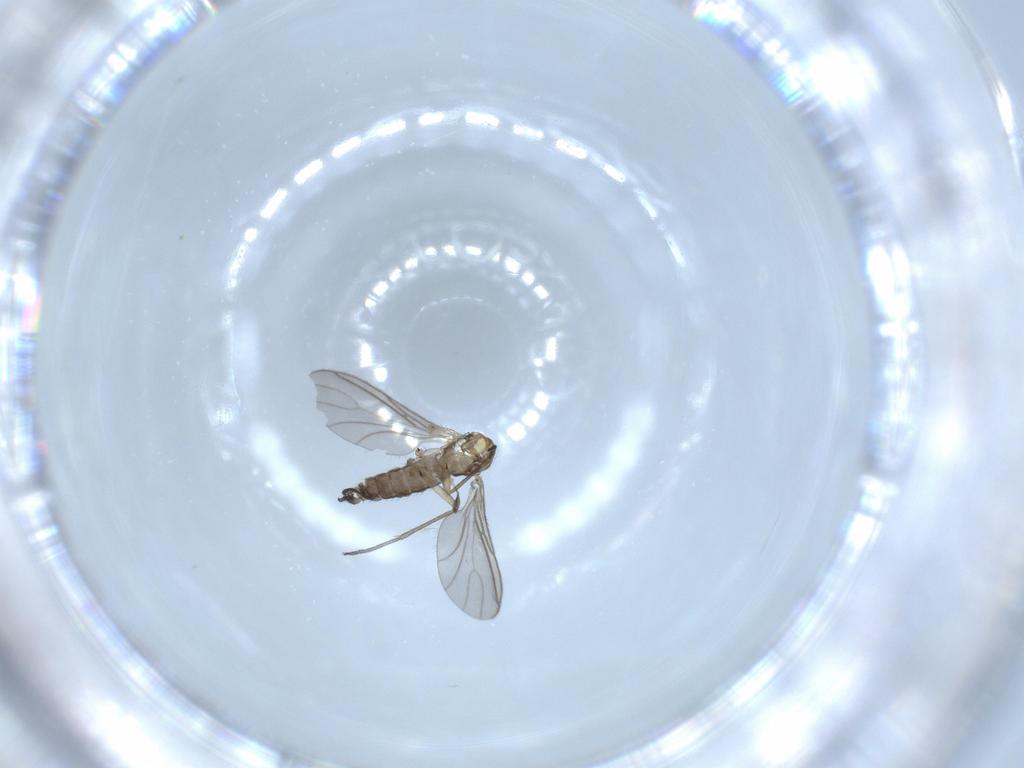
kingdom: Animalia
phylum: Arthropoda
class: Insecta
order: Diptera
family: Sciaridae
